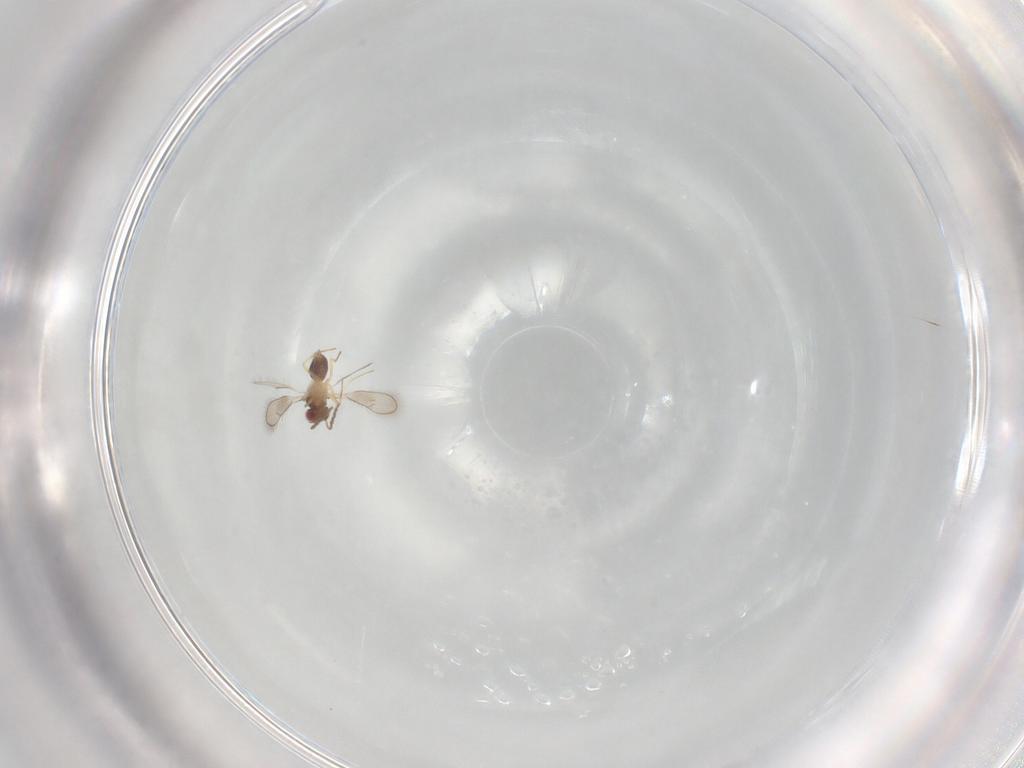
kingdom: Animalia
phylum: Arthropoda
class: Insecta
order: Hymenoptera
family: Eulophidae
